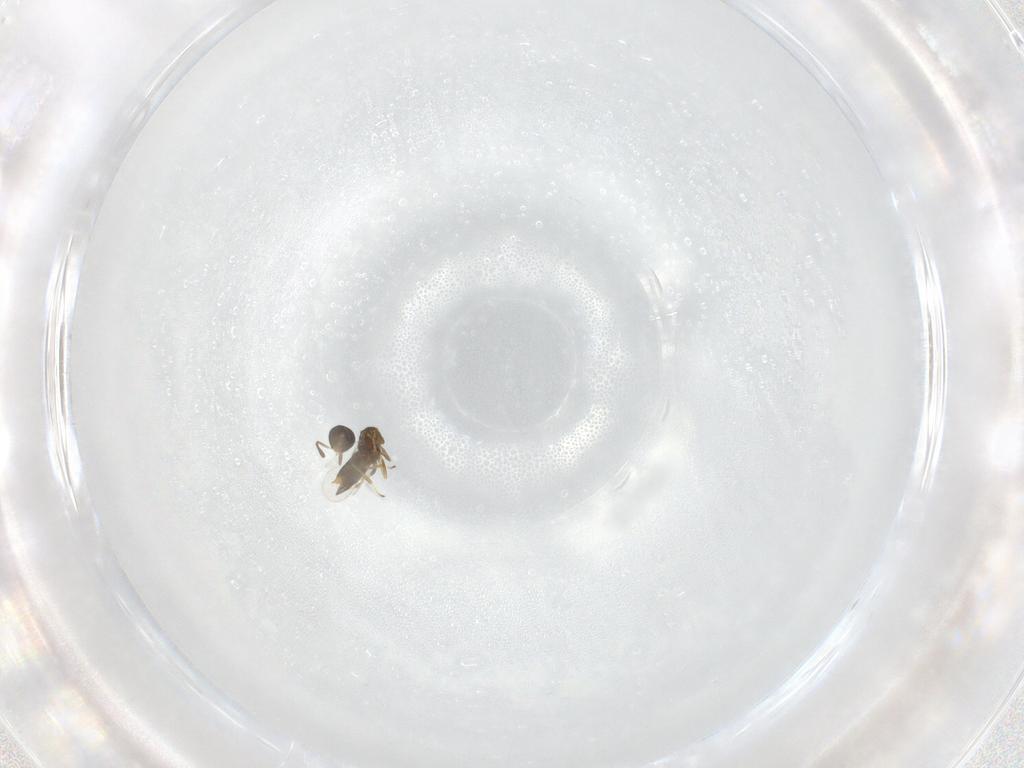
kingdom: Animalia
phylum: Arthropoda
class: Insecta
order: Hymenoptera
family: Encyrtidae
